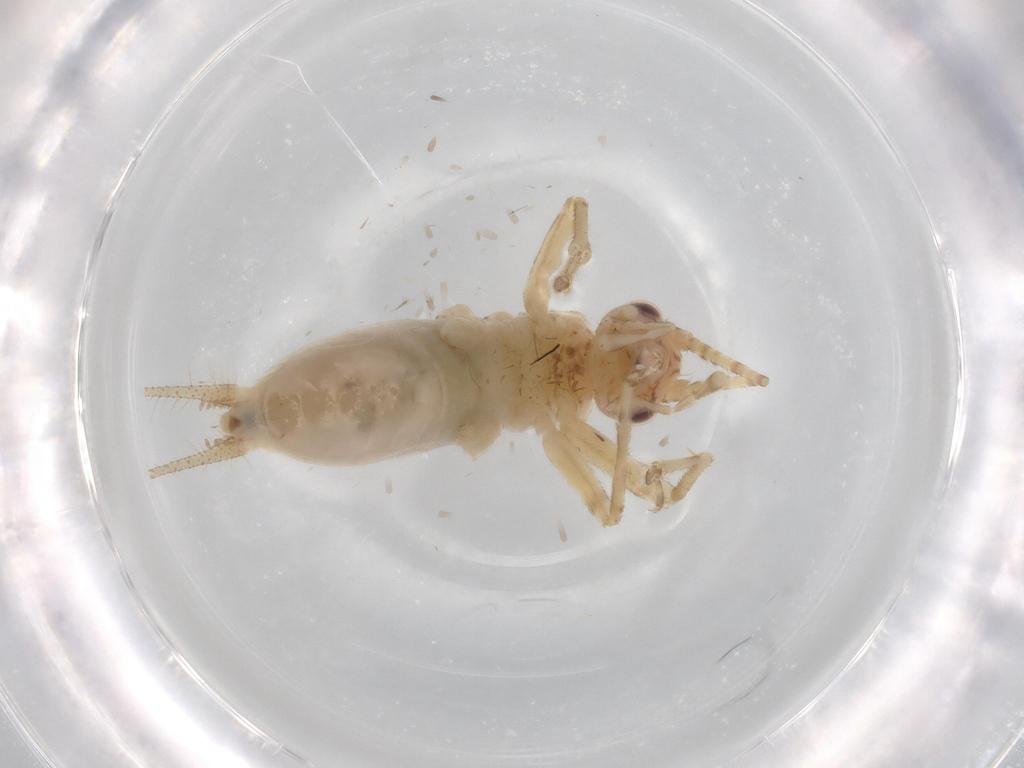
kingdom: Animalia
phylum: Arthropoda
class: Insecta
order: Orthoptera
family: Trigonidiidae
